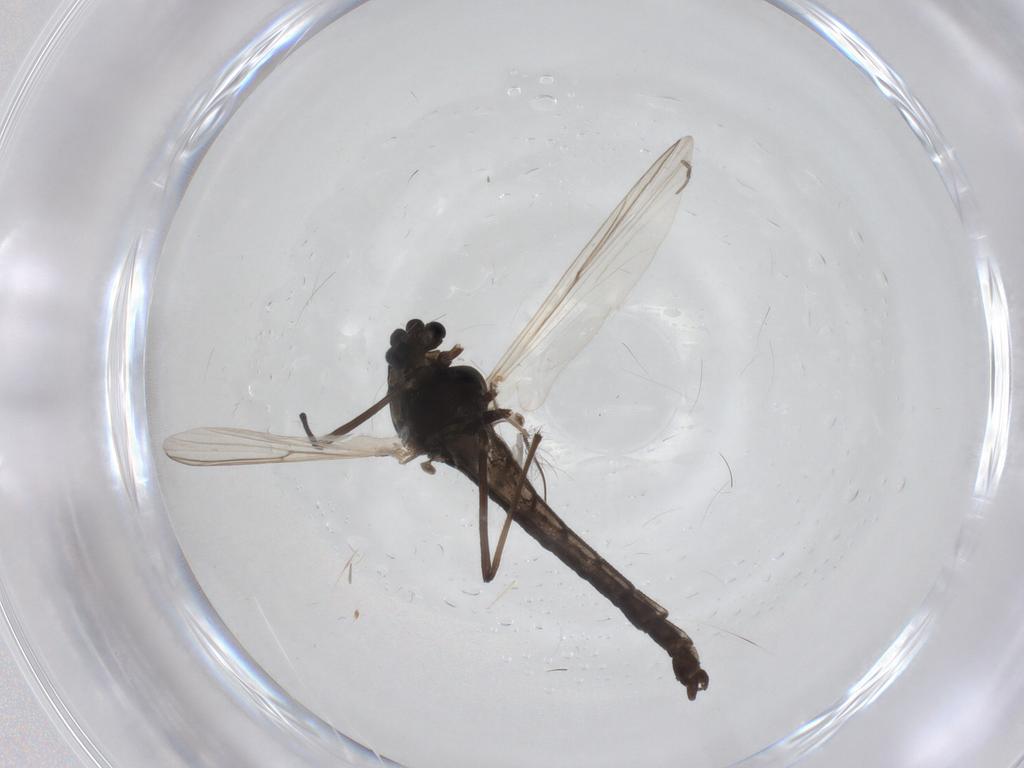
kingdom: Animalia
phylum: Arthropoda
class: Insecta
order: Diptera
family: Chironomidae
